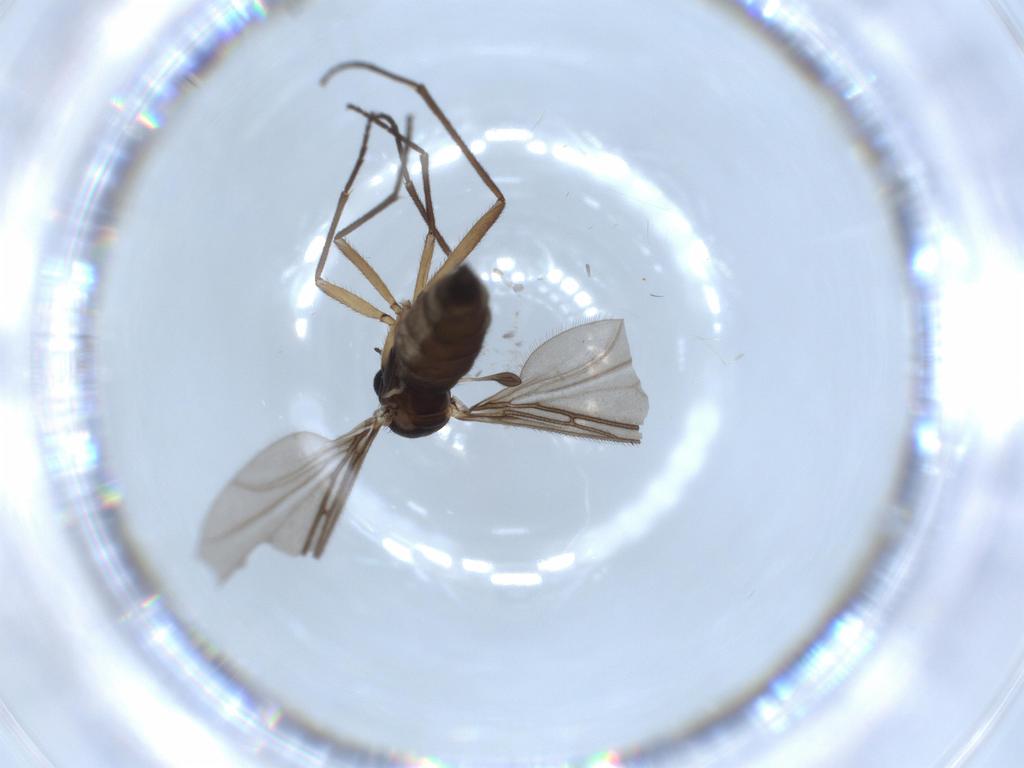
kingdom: Animalia
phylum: Arthropoda
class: Insecta
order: Diptera
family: Sciaridae
